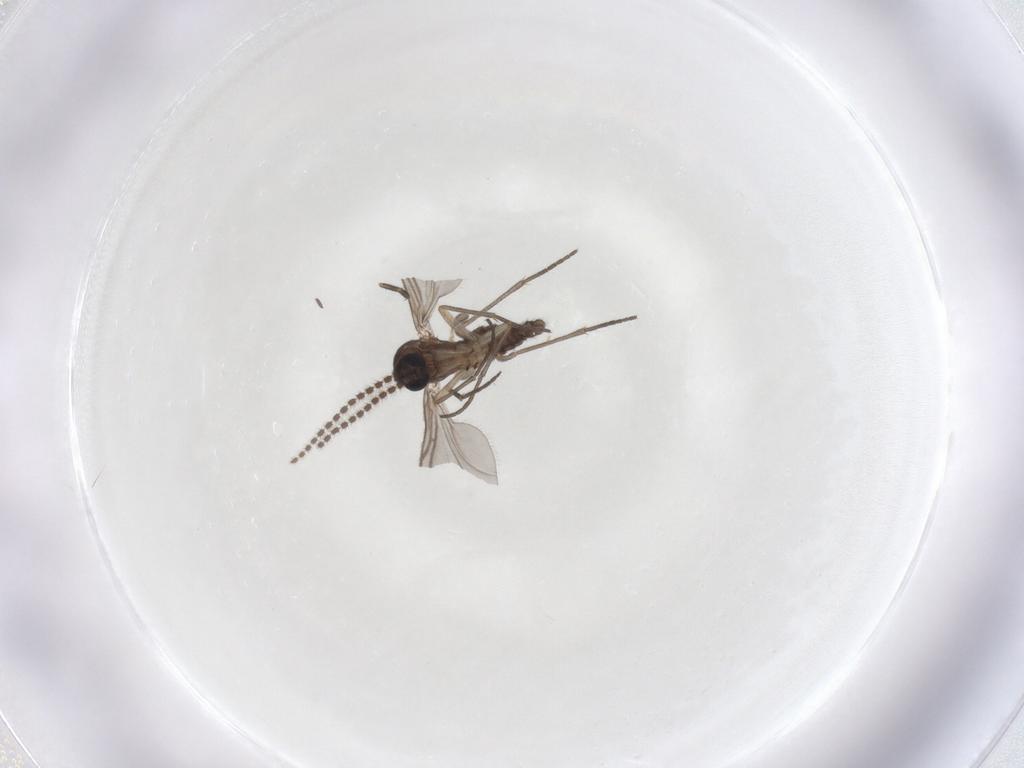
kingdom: Animalia
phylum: Arthropoda
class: Insecta
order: Diptera
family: Sciaridae
